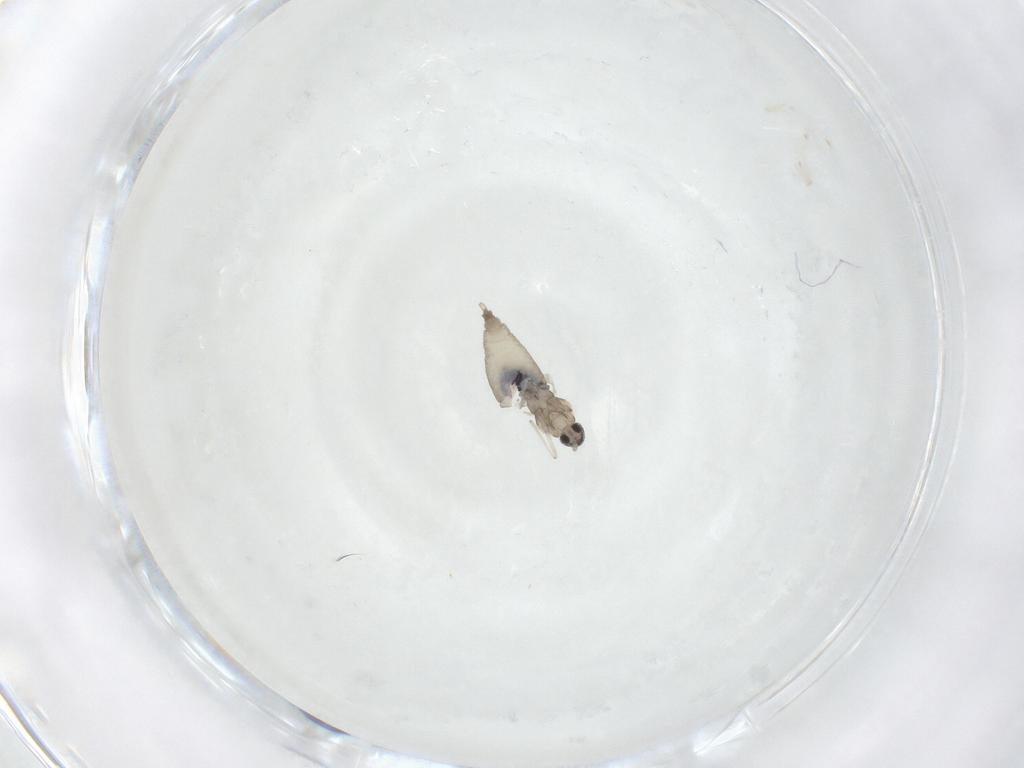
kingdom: Animalia
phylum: Arthropoda
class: Insecta
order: Diptera
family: Cecidomyiidae
